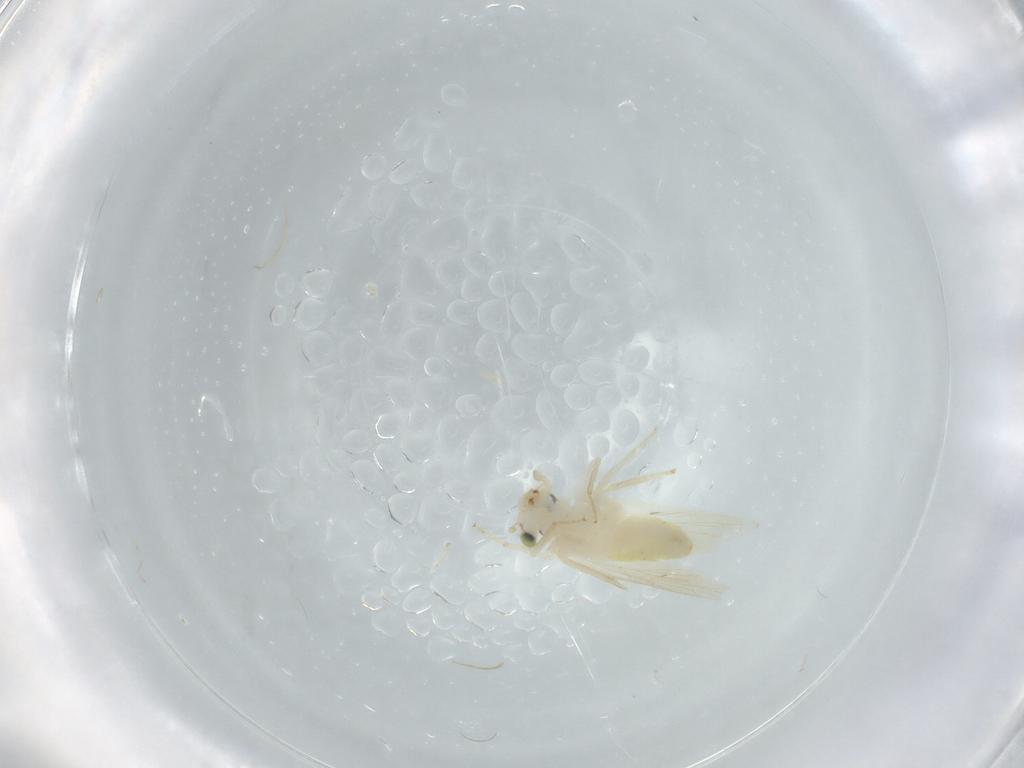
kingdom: Animalia
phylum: Arthropoda
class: Insecta
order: Psocodea
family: Lepidopsocidae
